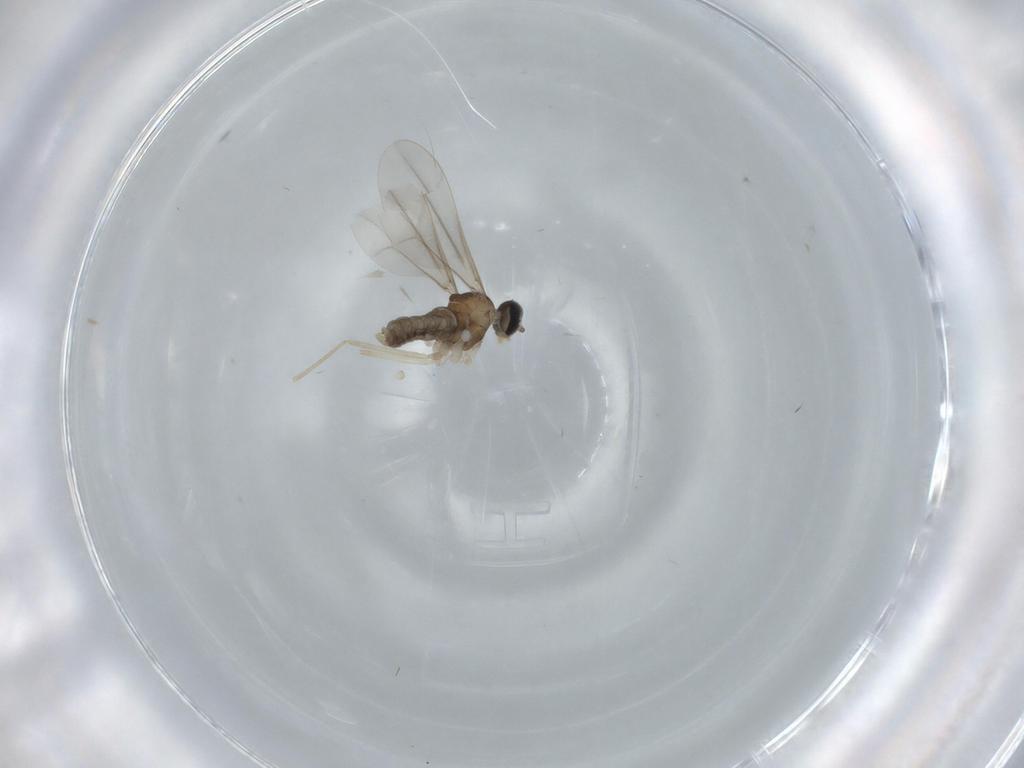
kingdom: Animalia
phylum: Arthropoda
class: Insecta
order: Diptera
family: Milichiidae
